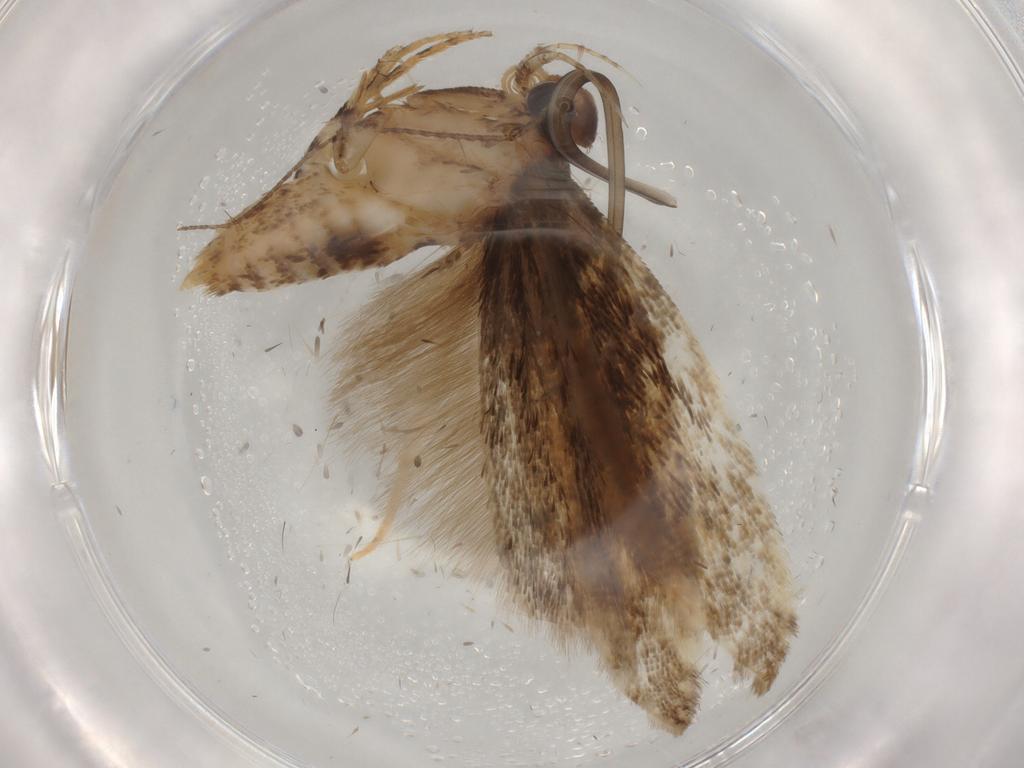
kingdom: Animalia
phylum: Arthropoda
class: Insecta
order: Lepidoptera
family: Gelechiidae
